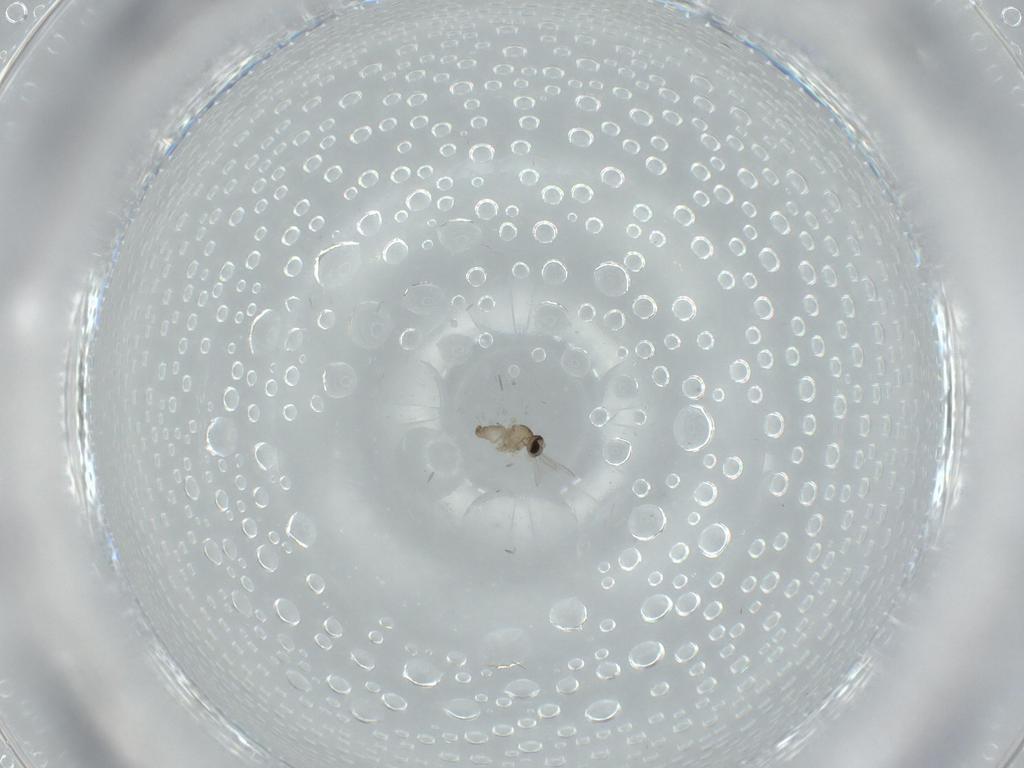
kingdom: Animalia
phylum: Arthropoda
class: Insecta
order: Diptera
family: Cecidomyiidae
